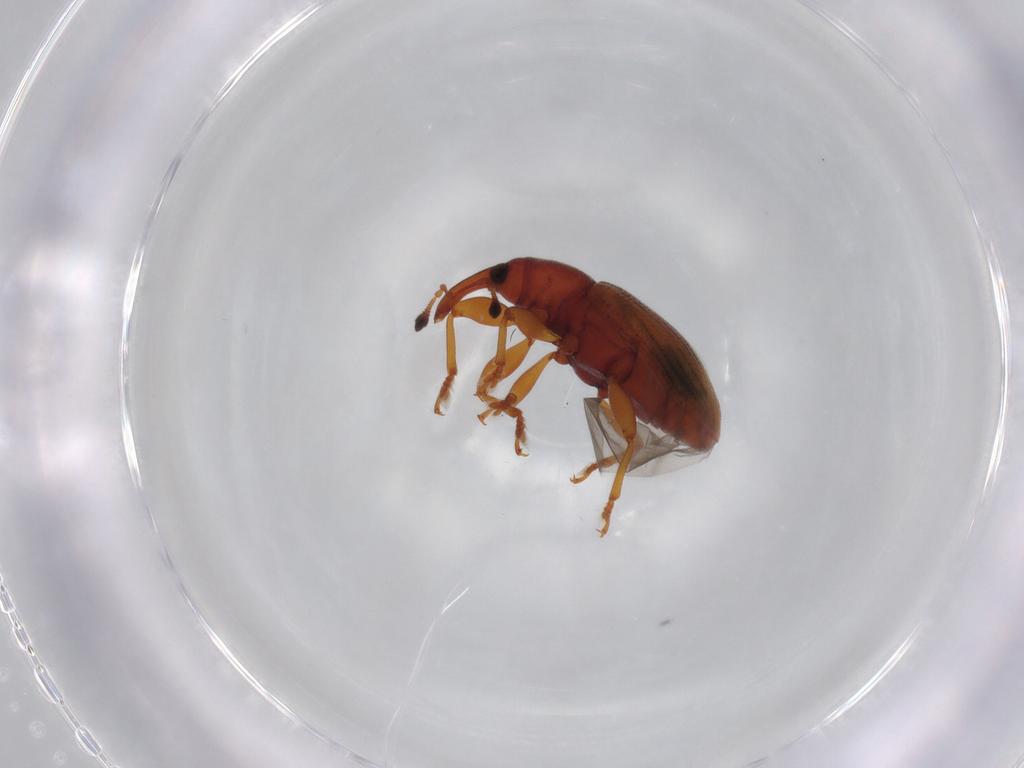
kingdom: Animalia
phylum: Arthropoda
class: Insecta
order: Coleoptera
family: Curculionidae
